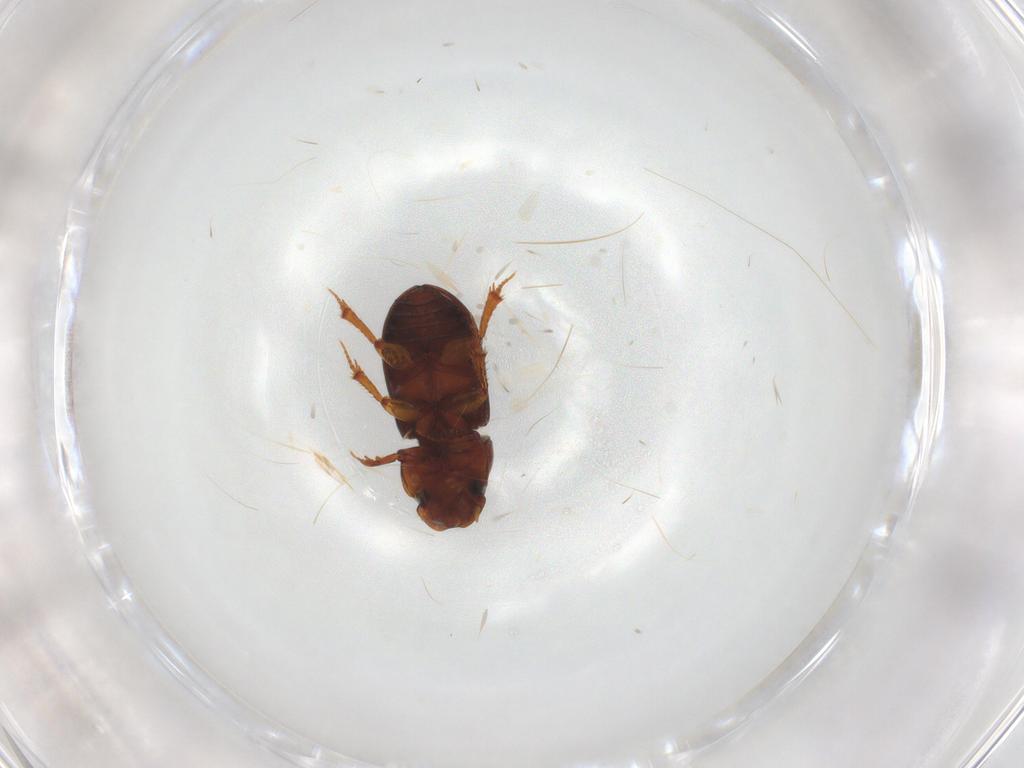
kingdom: Animalia
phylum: Arthropoda
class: Insecta
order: Coleoptera
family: Scarabaeidae
